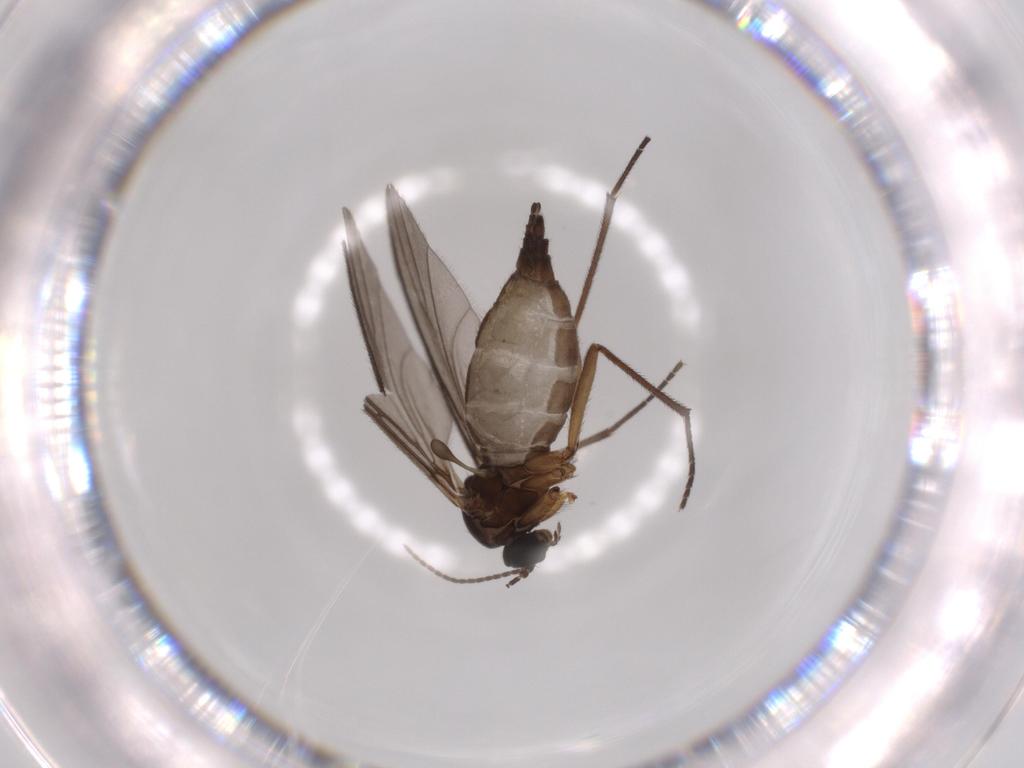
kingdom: Animalia
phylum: Arthropoda
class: Insecta
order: Diptera
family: Sciaridae
